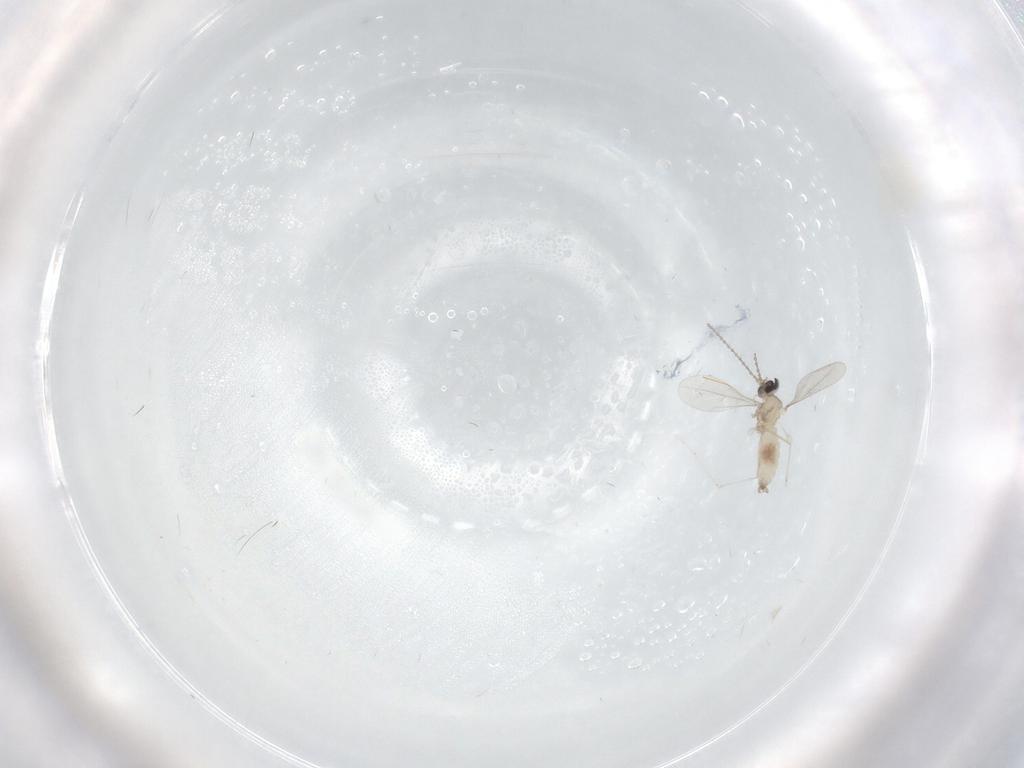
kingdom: Animalia
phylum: Arthropoda
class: Insecta
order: Diptera
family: Psychodidae
